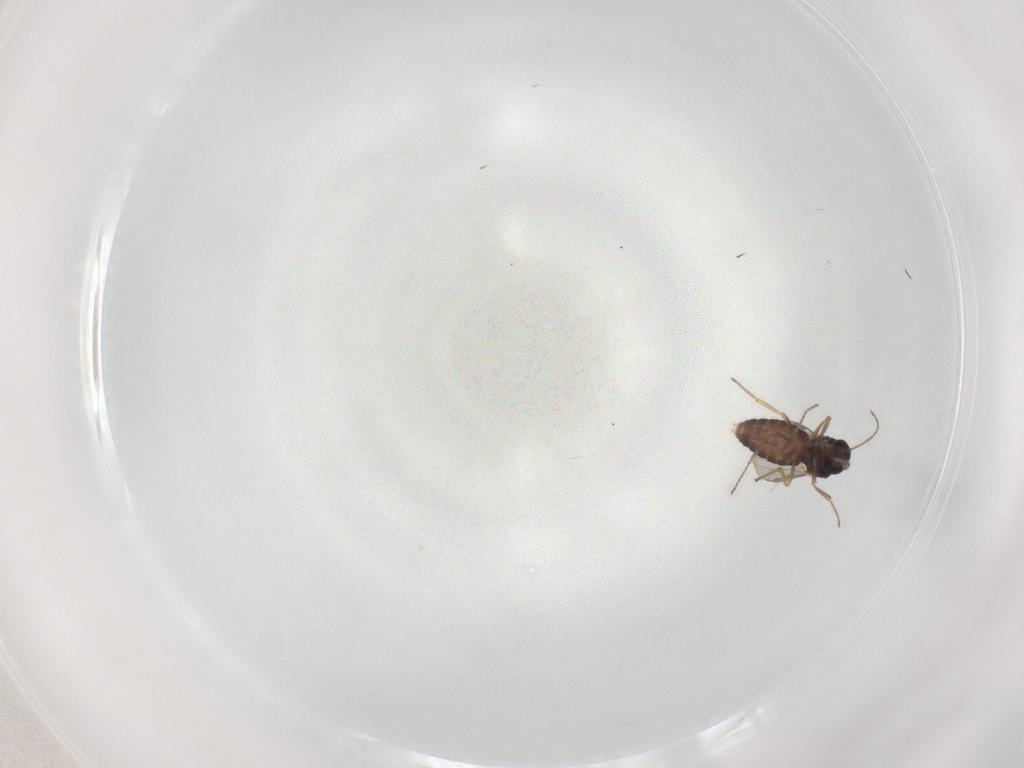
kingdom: Animalia
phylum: Arthropoda
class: Insecta
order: Diptera
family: Ceratopogonidae
